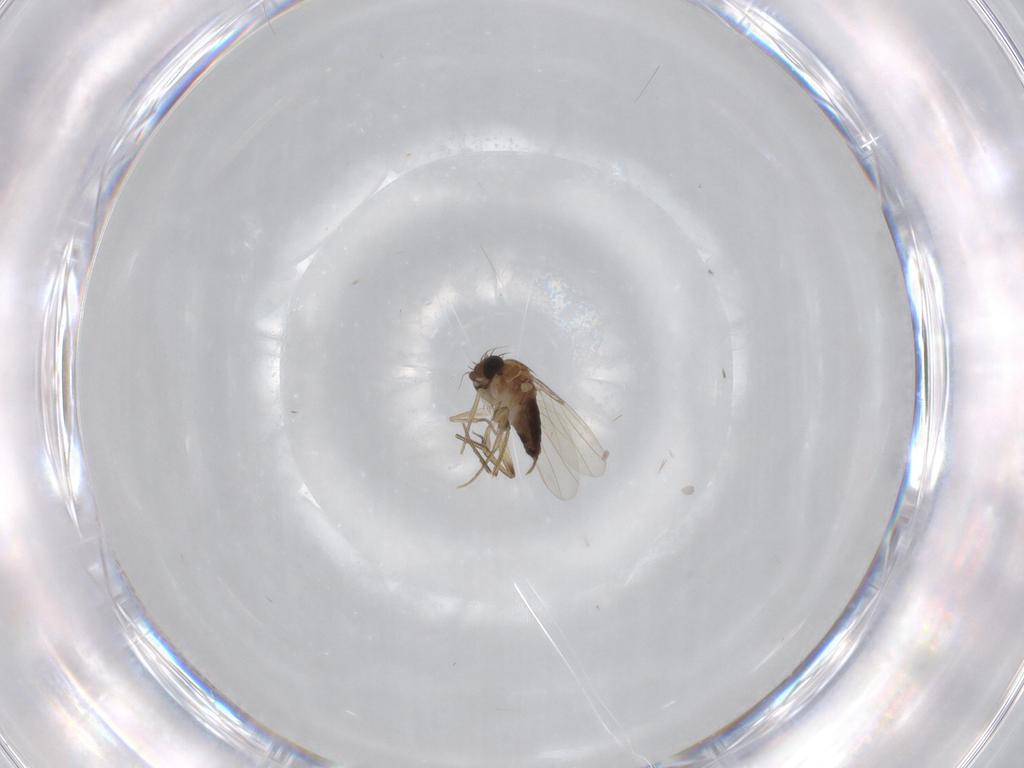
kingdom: Animalia
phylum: Arthropoda
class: Insecta
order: Diptera
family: Phoridae
